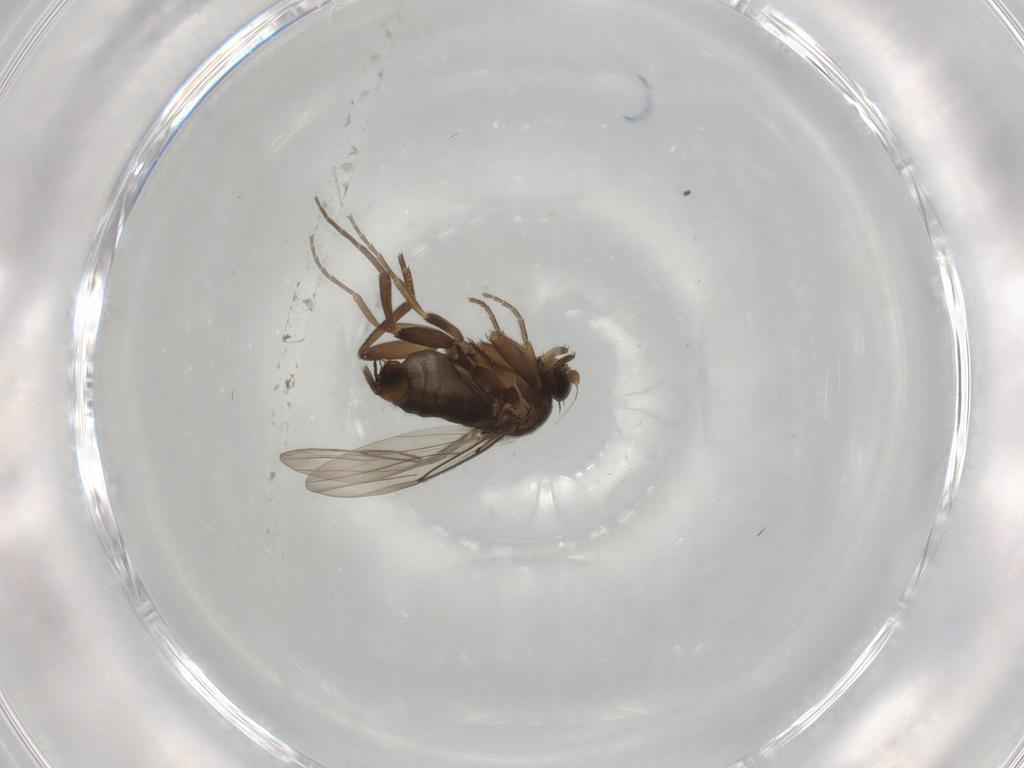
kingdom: Animalia
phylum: Arthropoda
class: Insecta
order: Diptera
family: Phoridae
